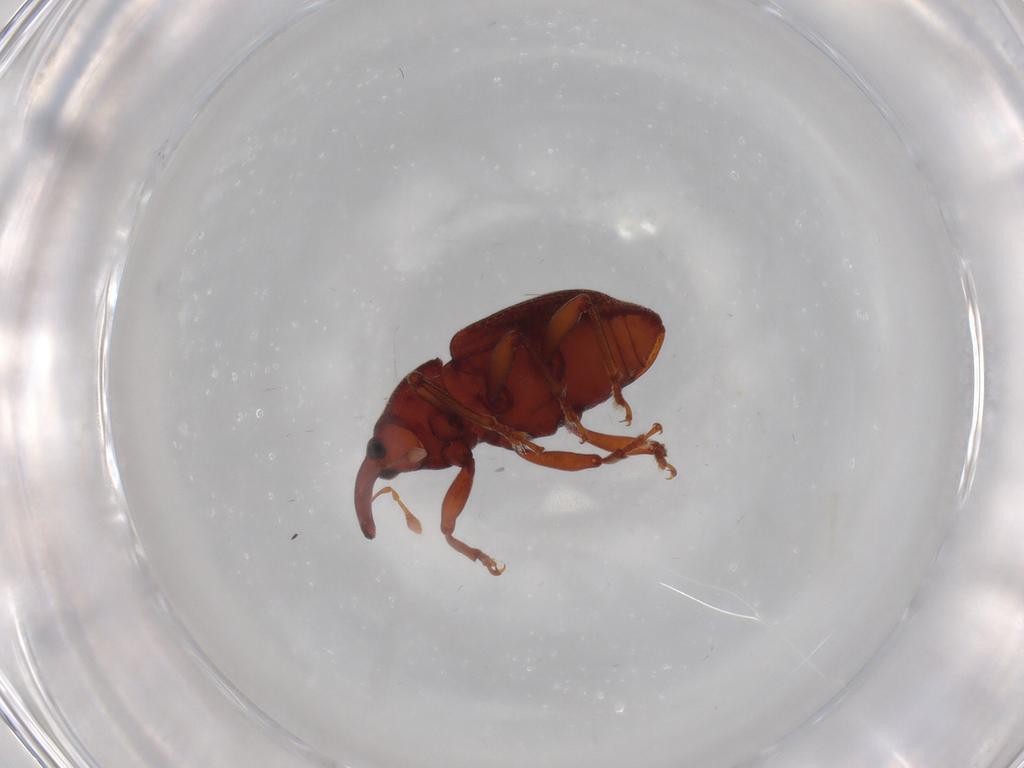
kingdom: Animalia
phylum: Arthropoda
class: Insecta
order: Coleoptera
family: Curculionidae
